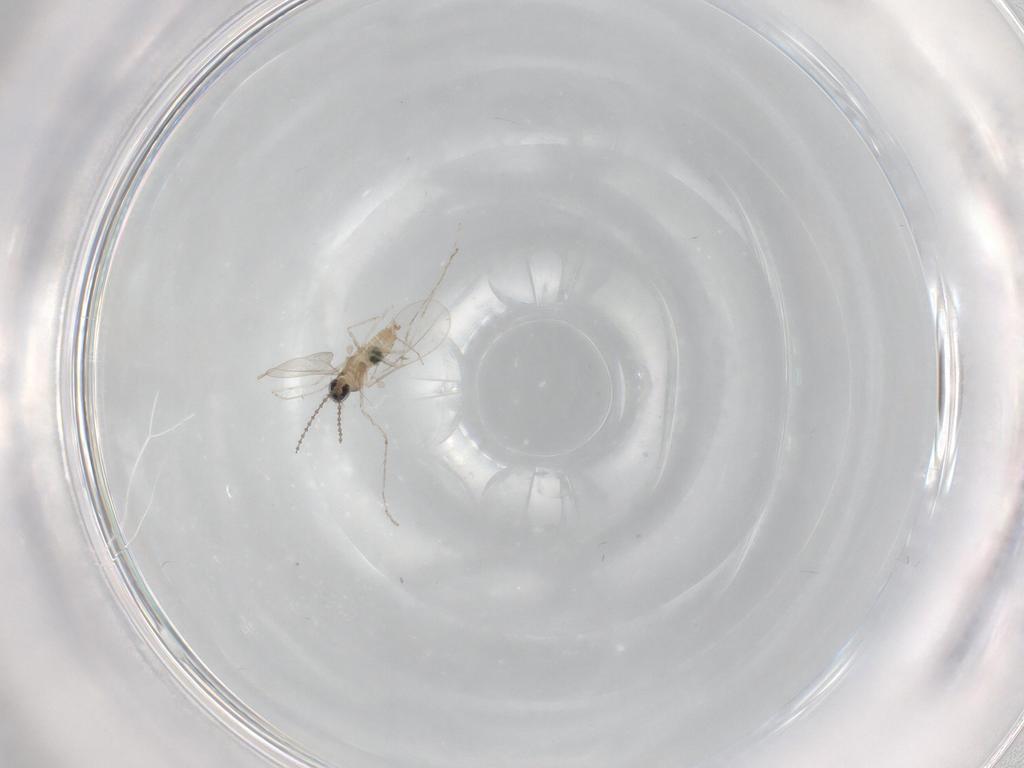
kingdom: Animalia
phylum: Arthropoda
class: Insecta
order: Diptera
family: Cecidomyiidae
